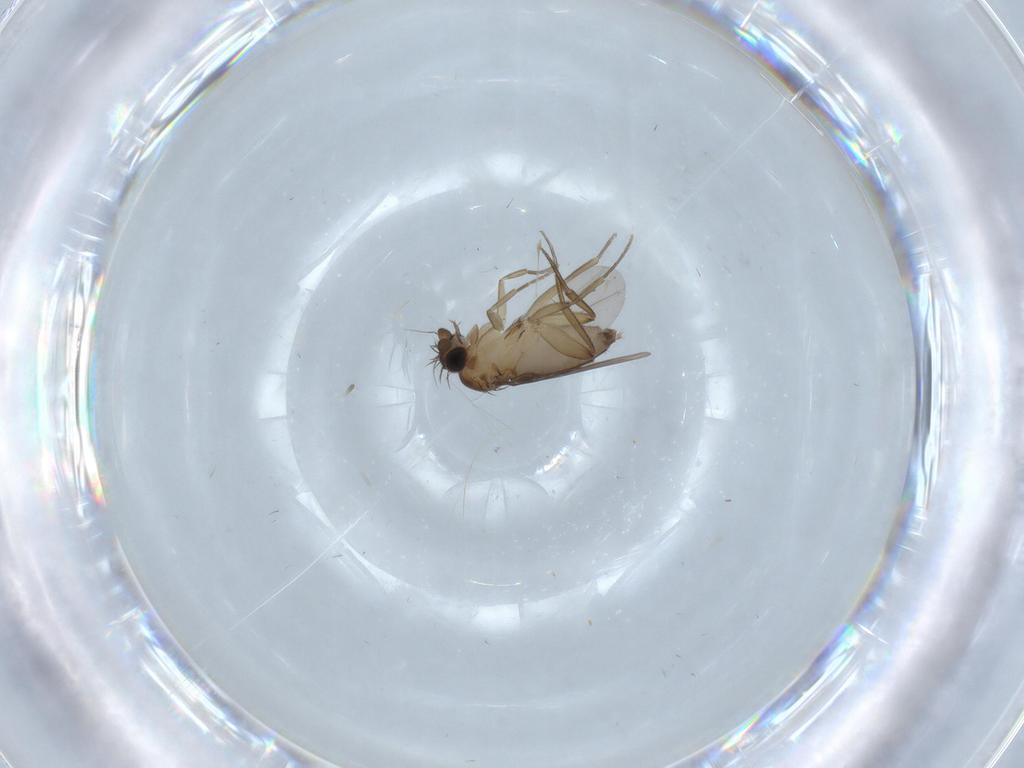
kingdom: Animalia
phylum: Arthropoda
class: Insecta
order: Diptera
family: Phoridae
